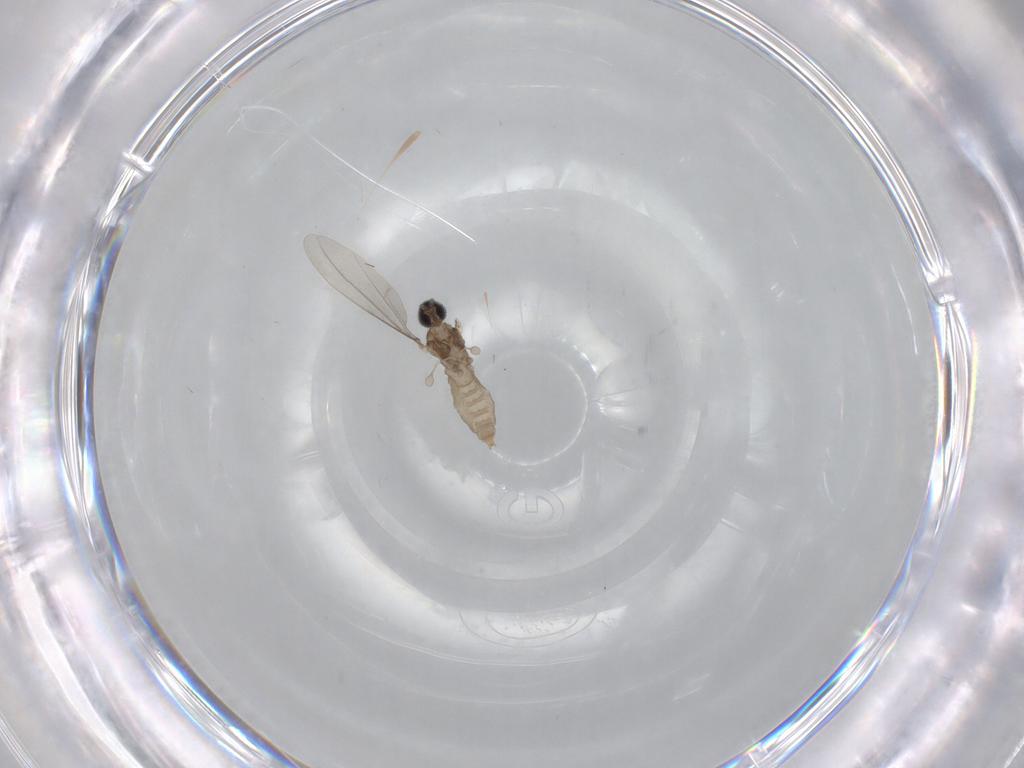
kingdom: Animalia
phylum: Arthropoda
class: Insecta
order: Diptera
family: Cecidomyiidae
